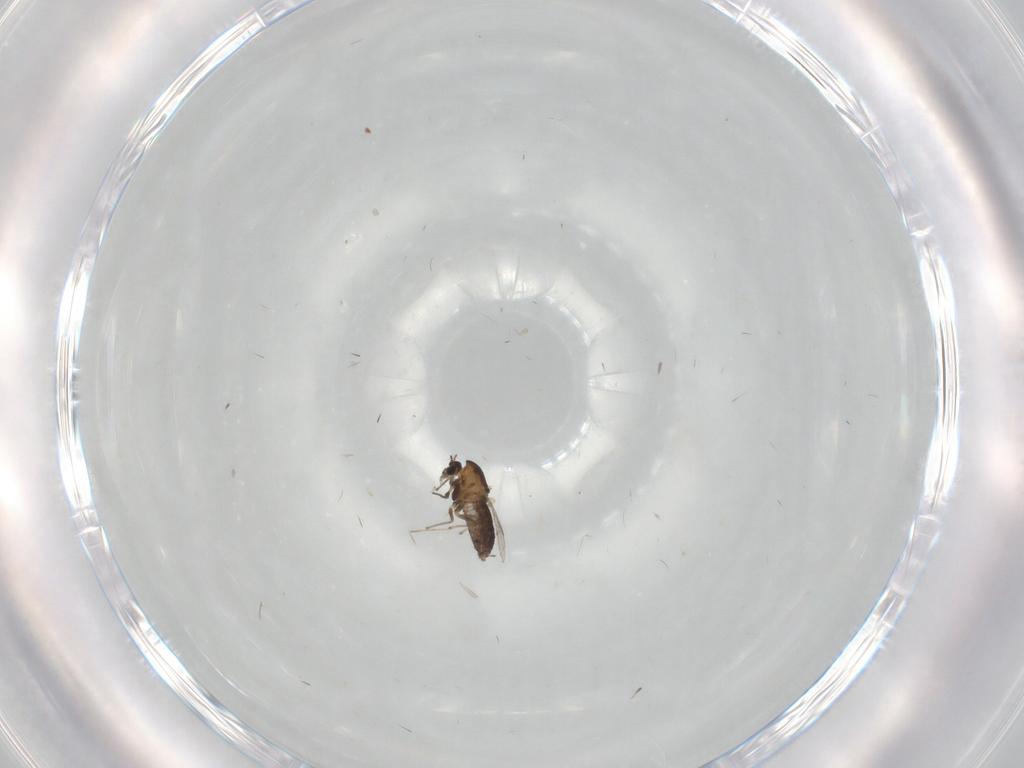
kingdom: Animalia
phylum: Arthropoda
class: Insecta
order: Diptera
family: Chironomidae
